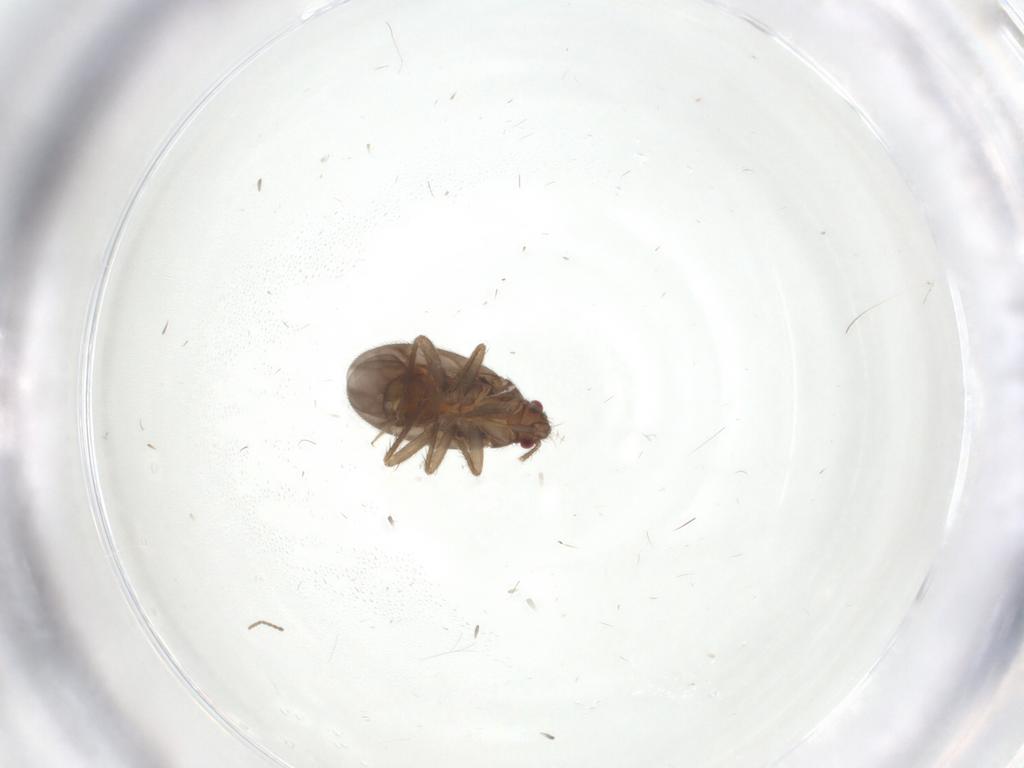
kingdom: Animalia
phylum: Arthropoda
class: Insecta
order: Hemiptera
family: Ceratocombidae
